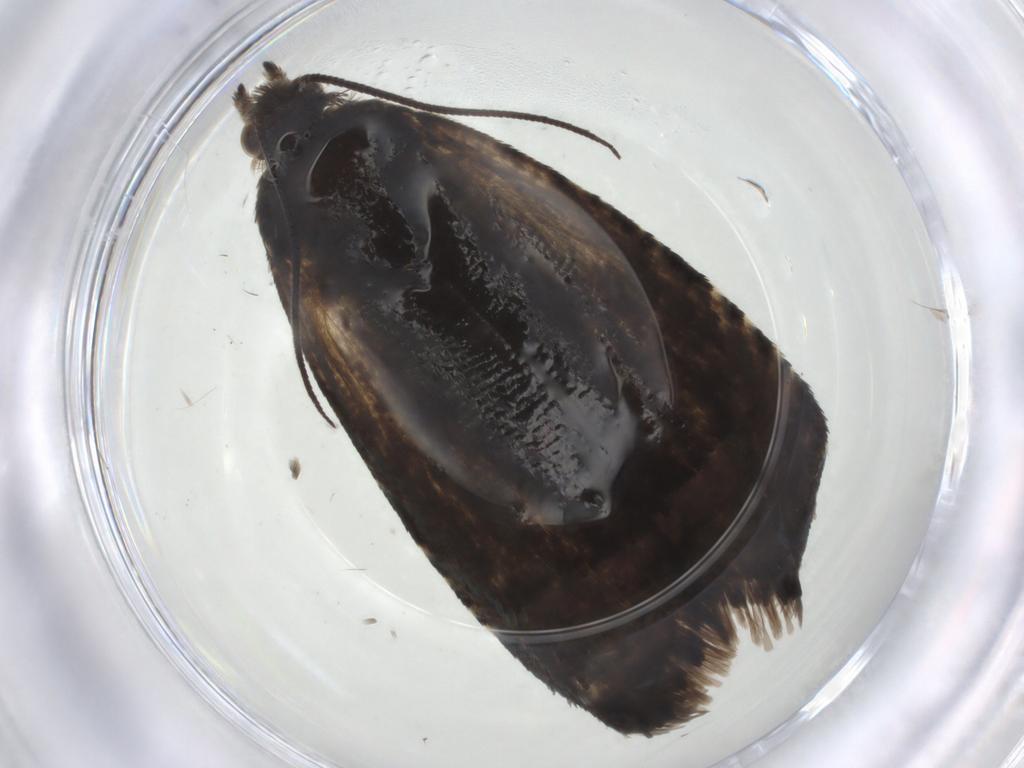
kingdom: Animalia
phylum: Arthropoda
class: Insecta
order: Lepidoptera
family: Tortricidae
